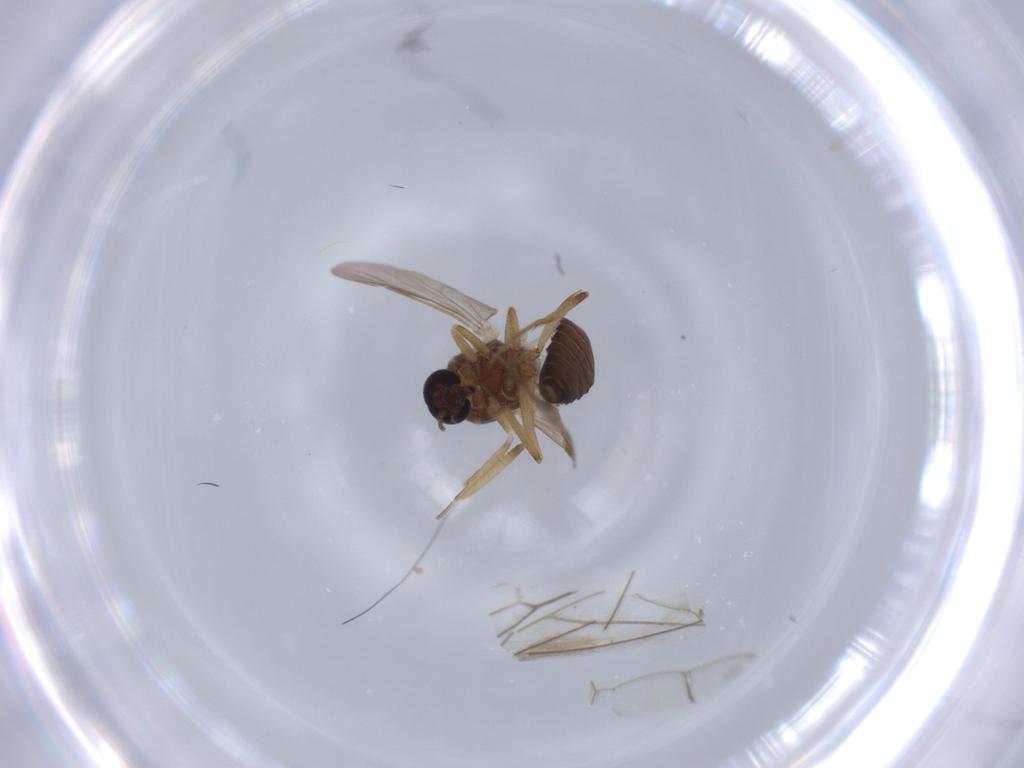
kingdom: Animalia
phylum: Arthropoda
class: Insecta
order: Diptera
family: Ceratopogonidae
